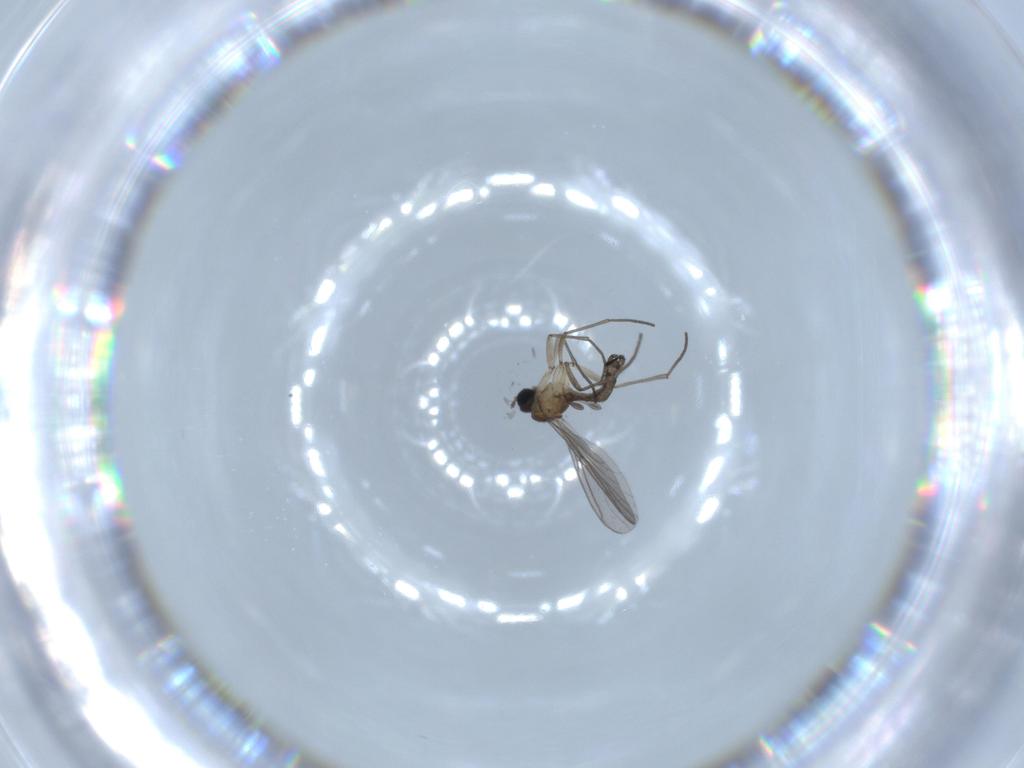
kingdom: Animalia
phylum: Arthropoda
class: Insecta
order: Diptera
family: Sciaridae
